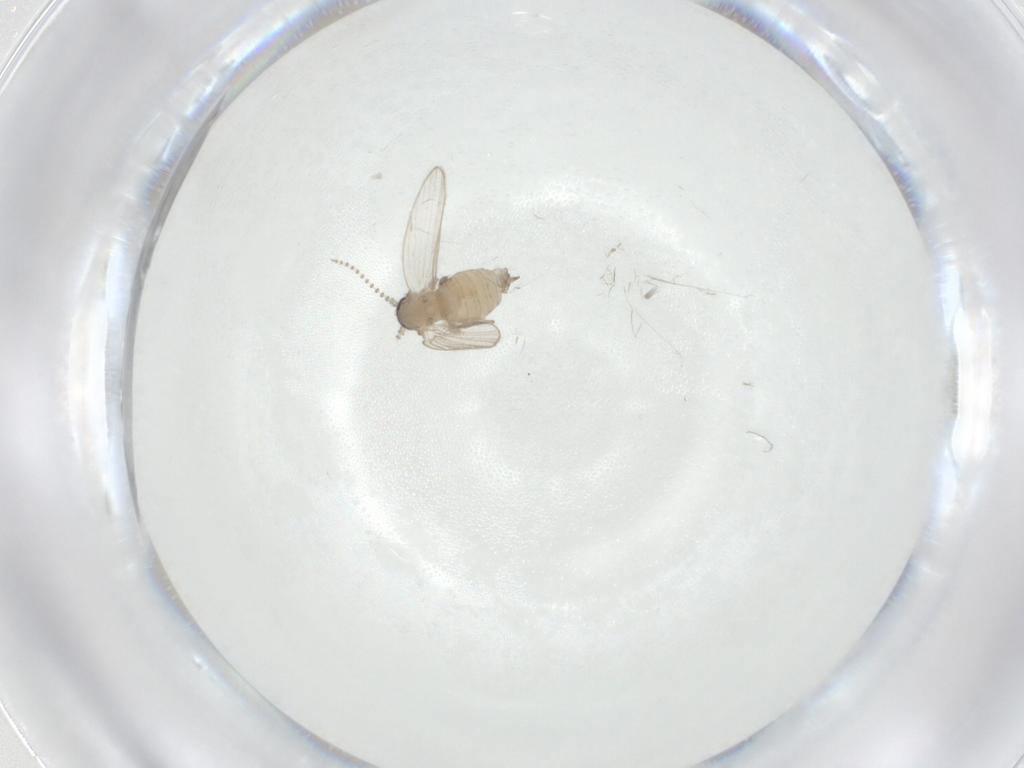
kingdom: Animalia
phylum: Arthropoda
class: Insecta
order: Diptera
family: Psychodidae
